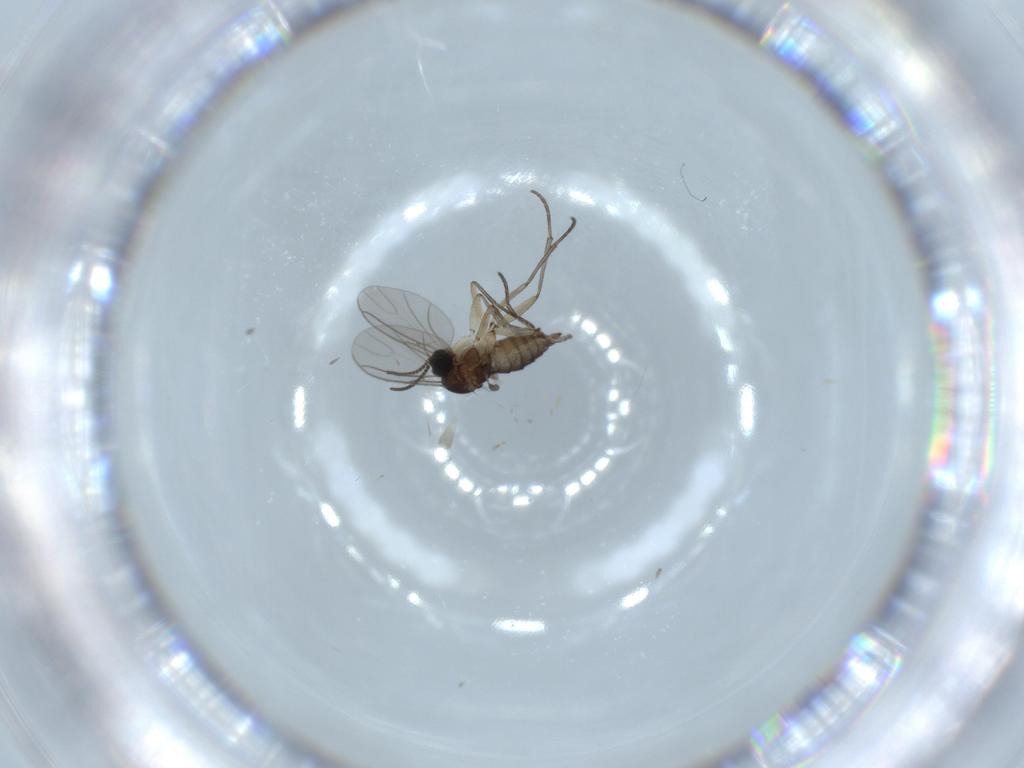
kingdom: Animalia
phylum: Arthropoda
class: Insecta
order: Diptera
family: Sciaridae
